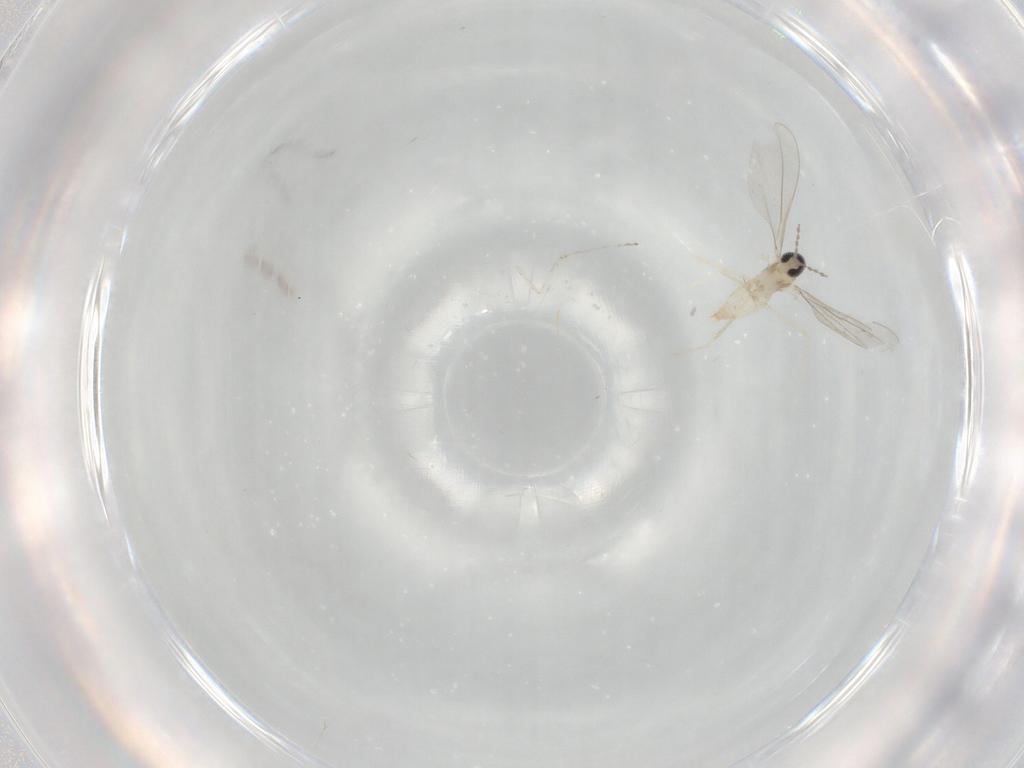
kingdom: Animalia
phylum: Arthropoda
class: Insecta
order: Diptera
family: Cecidomyiidae
